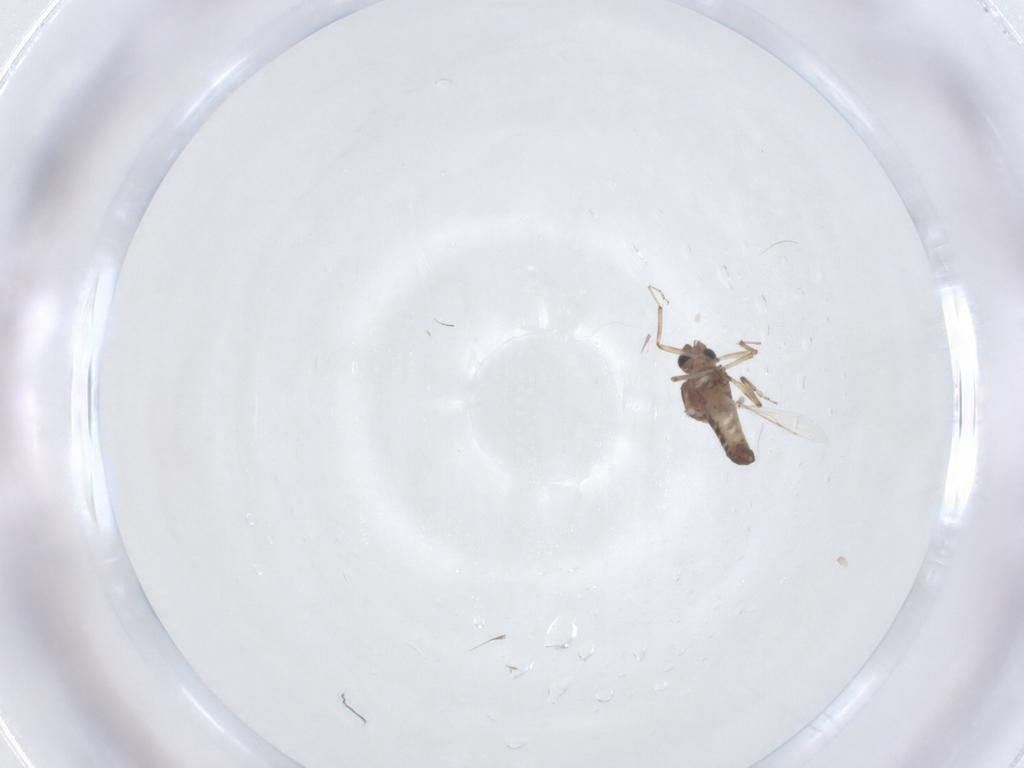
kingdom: Animalia
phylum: Arthropoda
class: Insecta
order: Diptera
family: Ceratopogonidae
